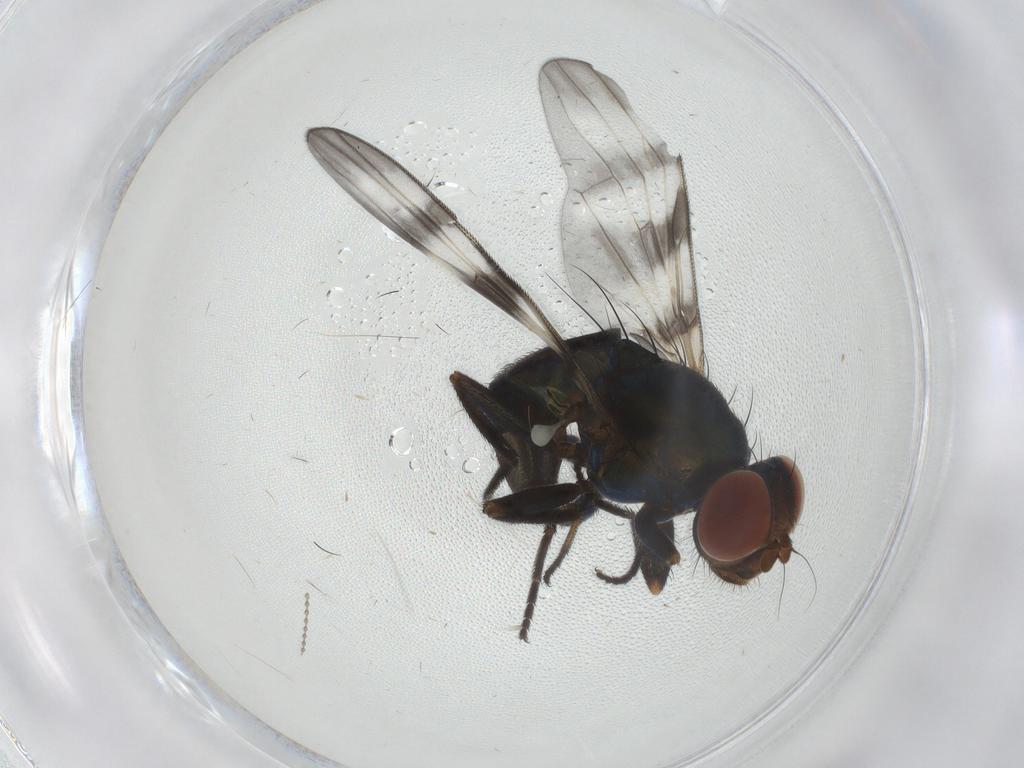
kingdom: Animalia
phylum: Arthropoda
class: Insecta
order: Diptera
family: Ulidiidae
